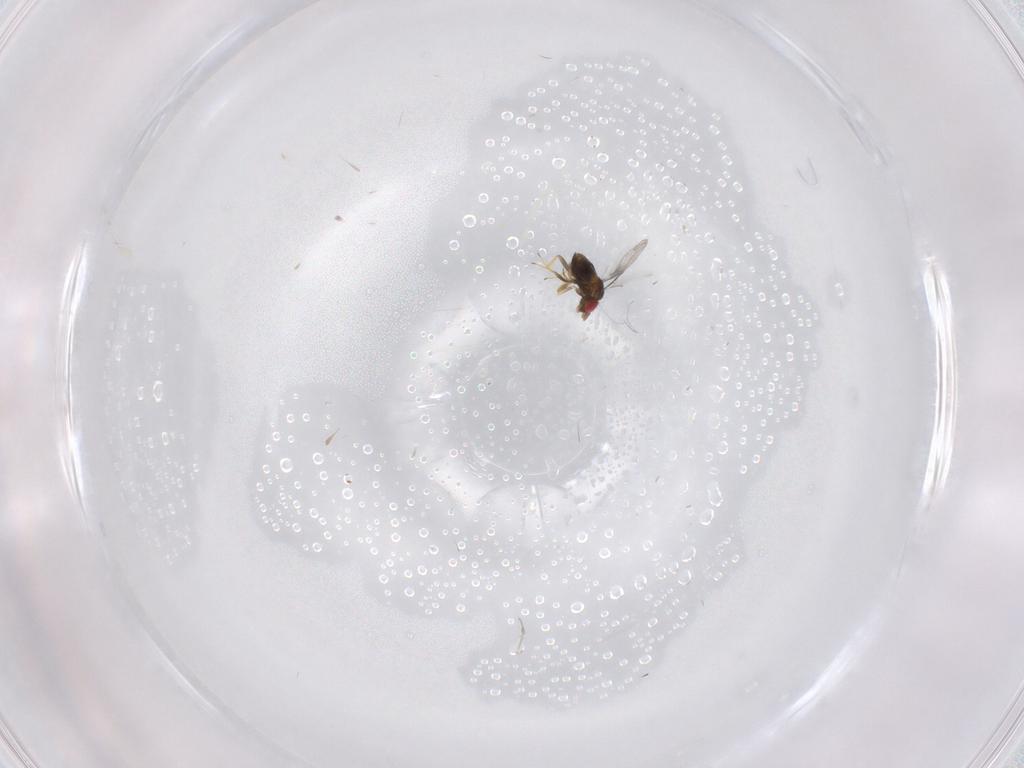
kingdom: Animalia
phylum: Arthropoda
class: Insecta
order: Hymenoptera
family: Trichogrammatidae
